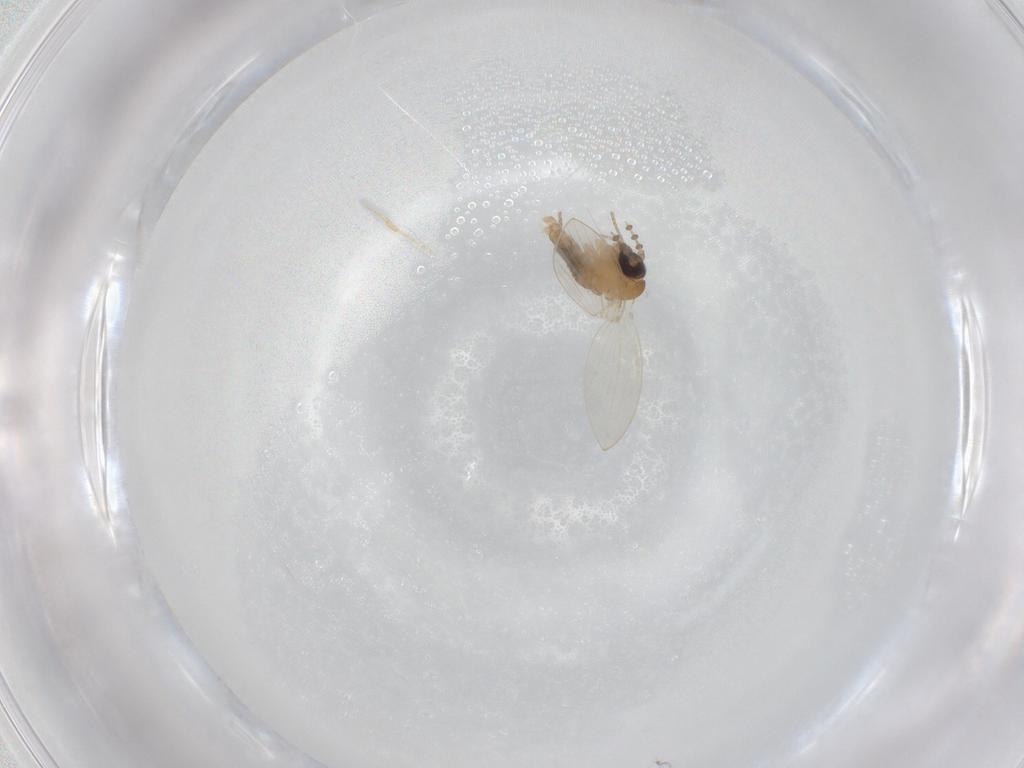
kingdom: Animalia
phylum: Arthropoda
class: Insecta
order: Diptera
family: Psychodidae
